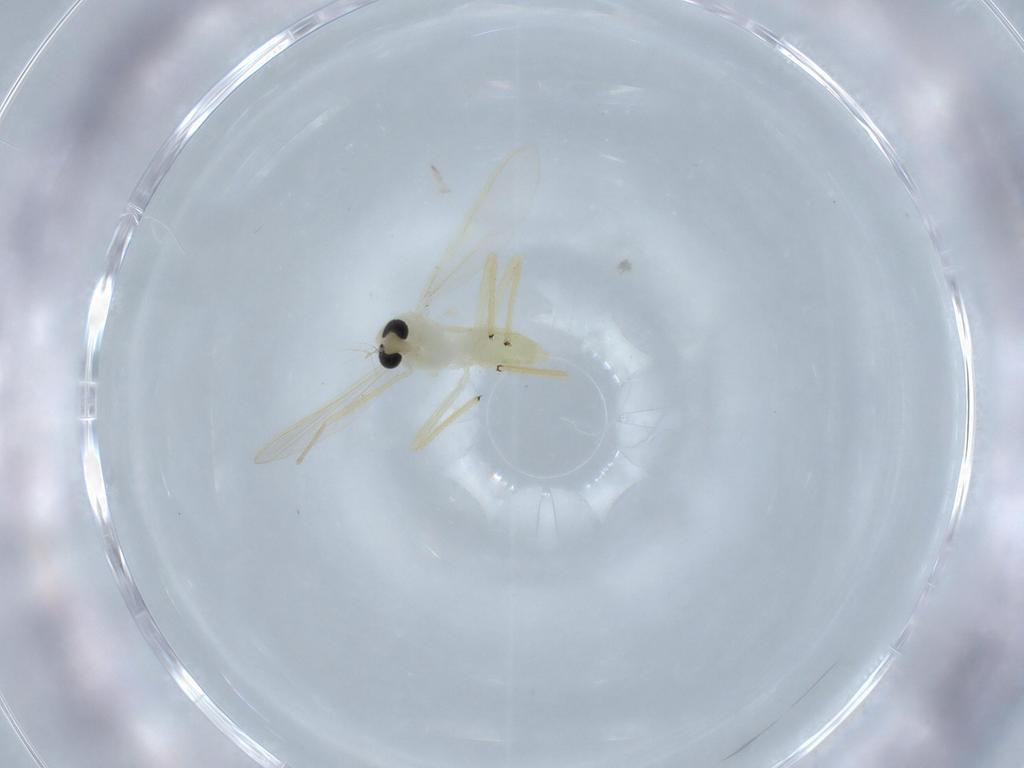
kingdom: Animalia
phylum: Arthropoda
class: Insecta
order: Diptera
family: Chironomidae
